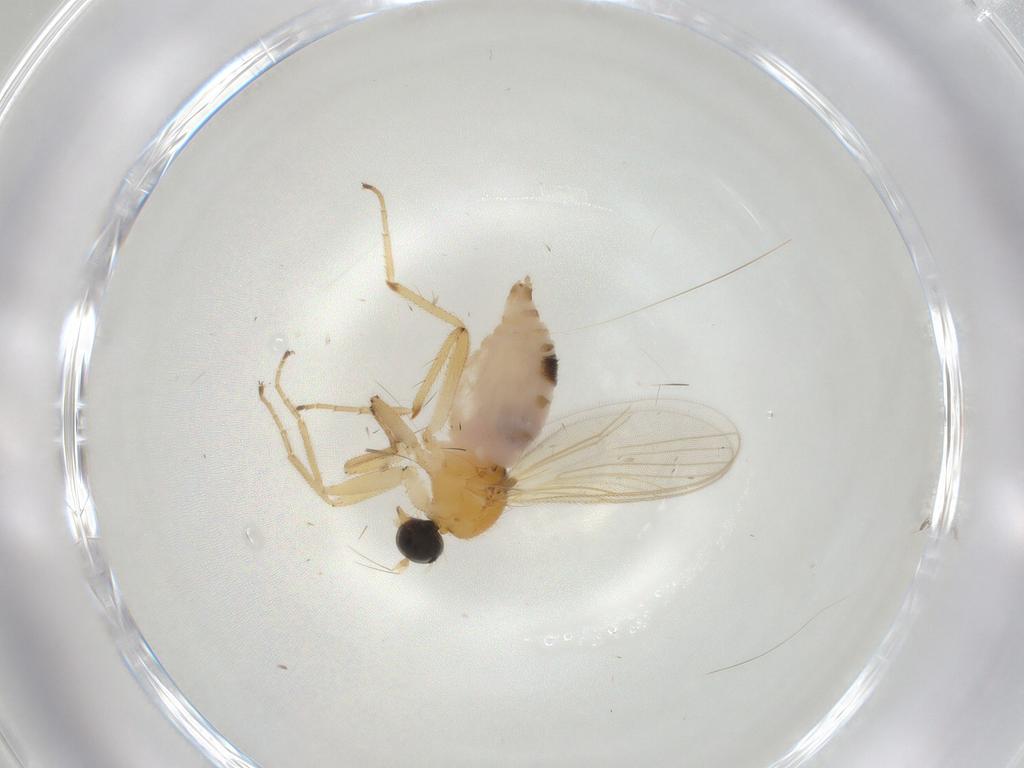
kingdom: Animalia
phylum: Arthropoda
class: Insecta
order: Diptera
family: Hybotidae
